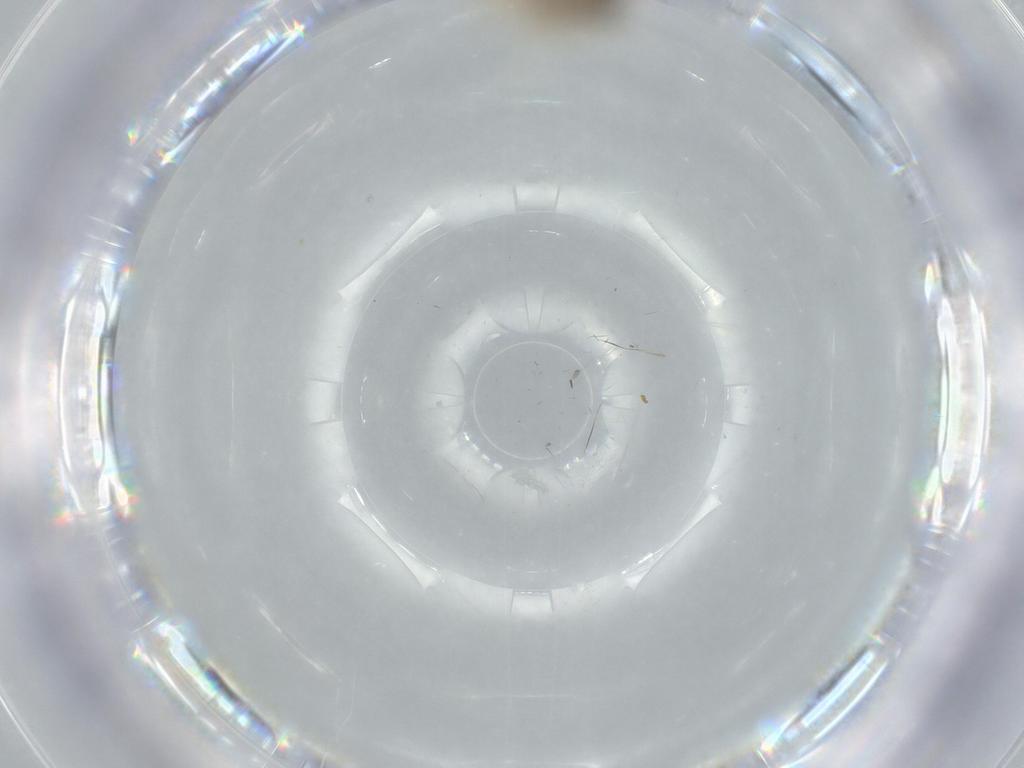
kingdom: Animalia
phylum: Arthropoda
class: Insecta
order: Diptera
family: Cecidomyiidae
